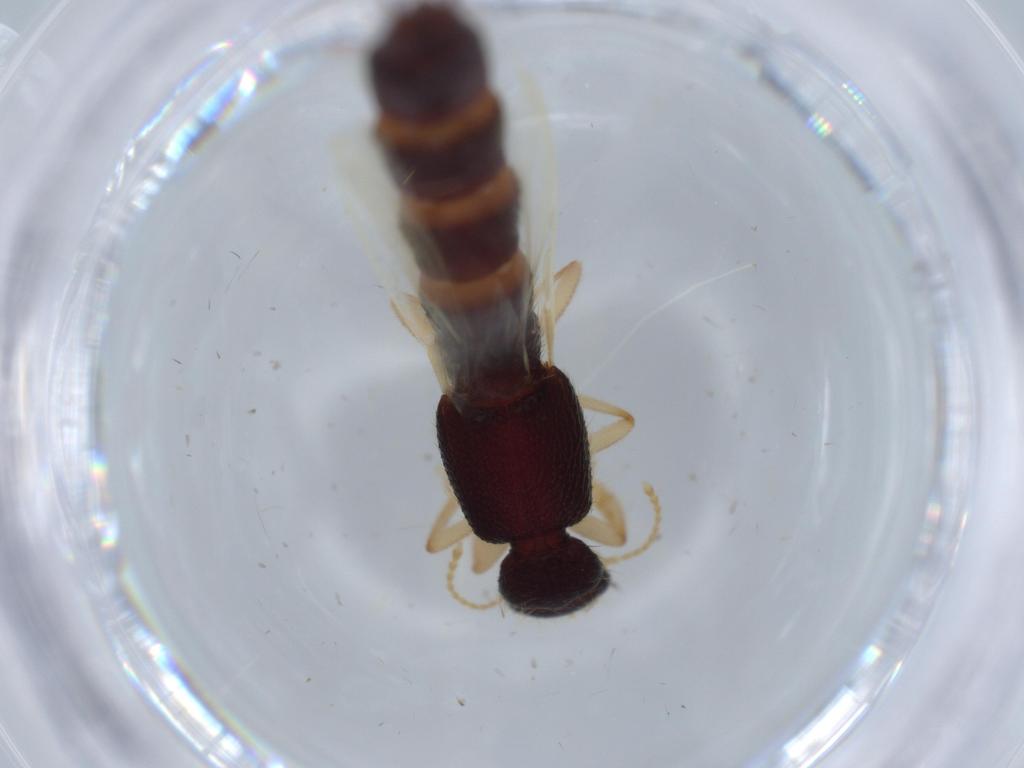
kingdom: Animalia
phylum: Arthropoda
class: Insecta
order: Coleoptera
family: Staphylinidae
